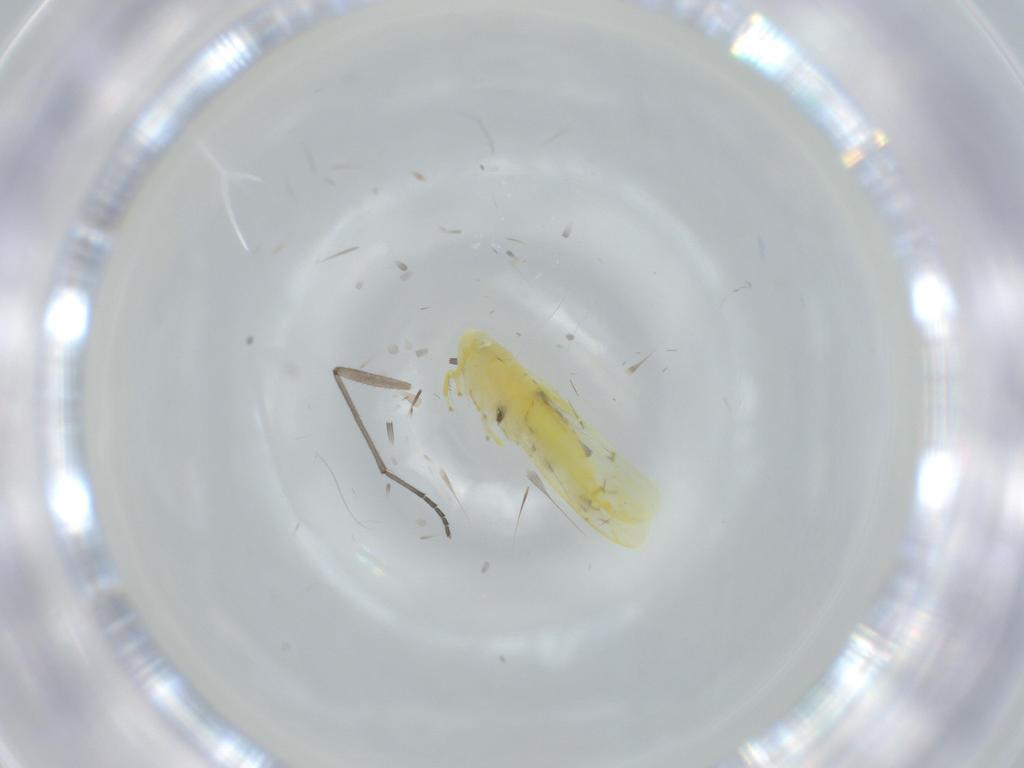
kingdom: Animalia
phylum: Arthropoda
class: Insecta
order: Hemiptera
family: Cicadellidae
